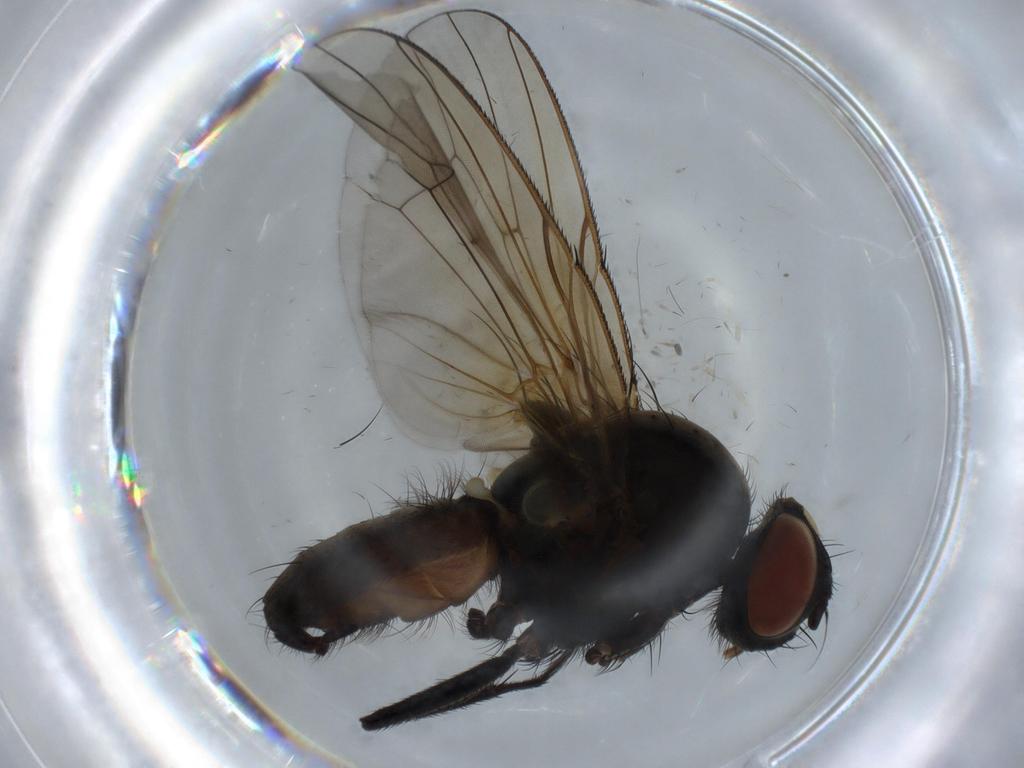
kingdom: Animalia
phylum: Arthropoda
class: Insecta
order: Diptera
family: Anthomyiidae
